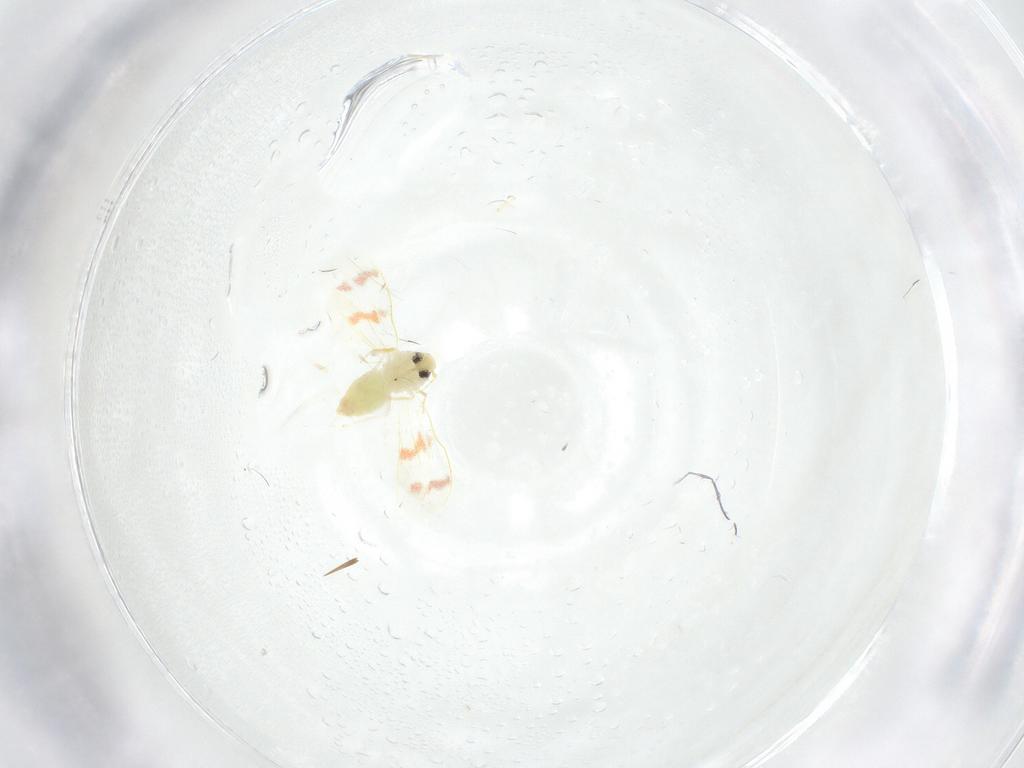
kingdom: Animalia
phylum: Arthropoda
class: Insecta
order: Hemiptera
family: Aleyrodidae
